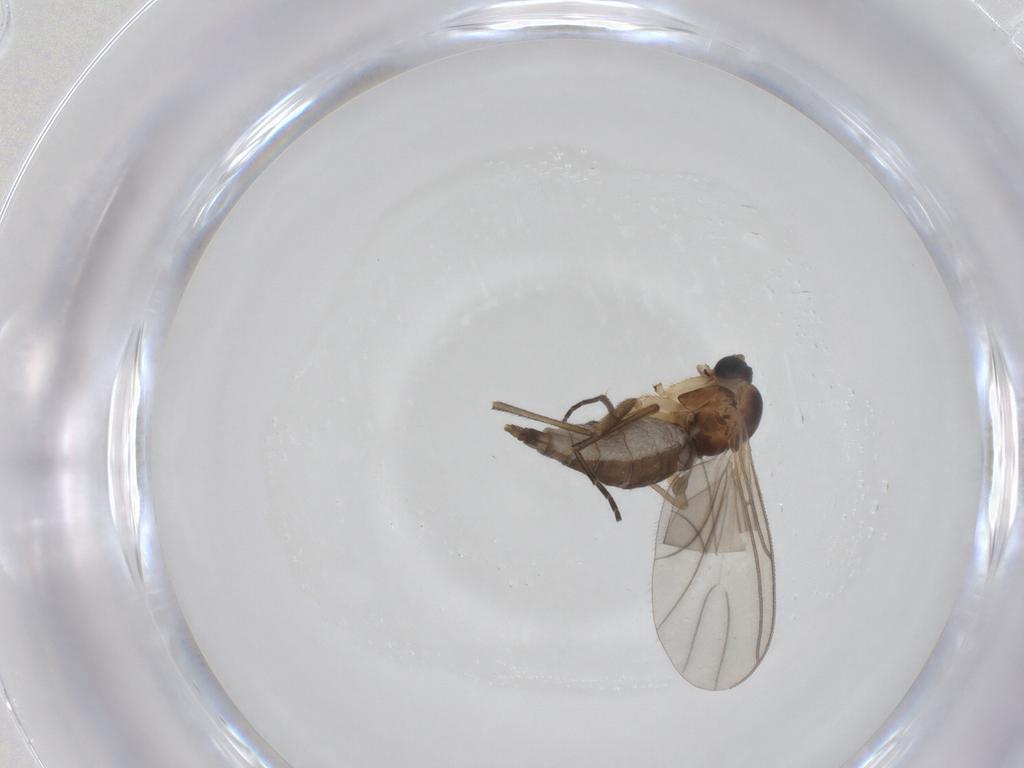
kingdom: Animalia
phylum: Arthropoda
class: Insecta
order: Diptera
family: Sciaridae
